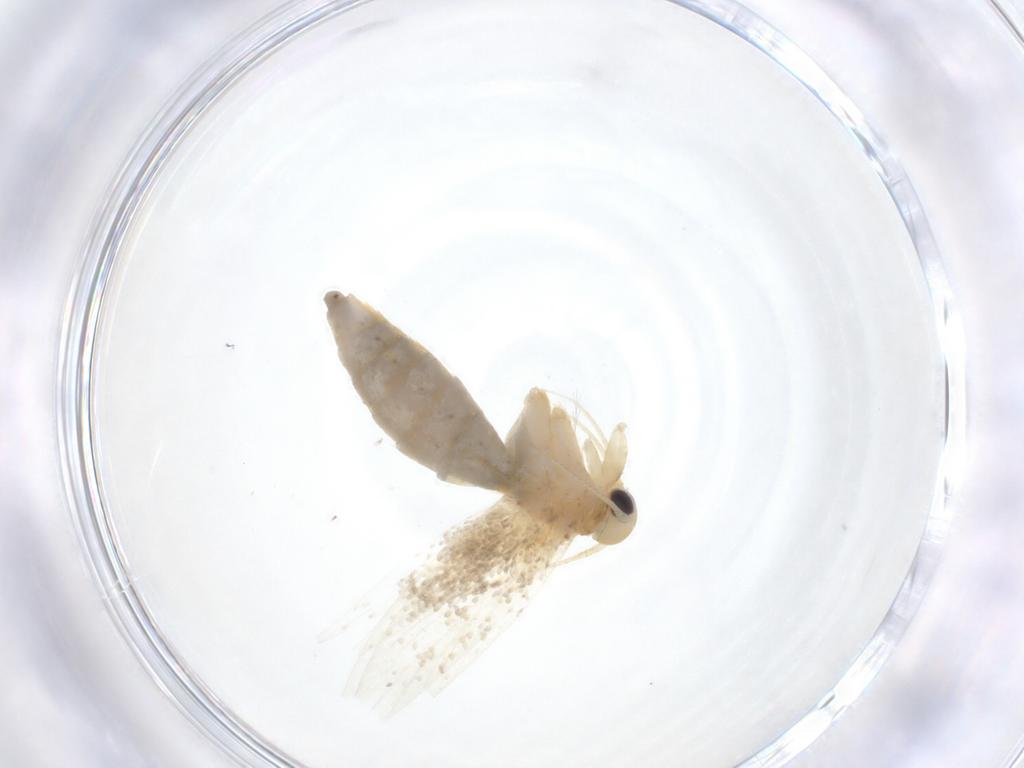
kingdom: Animalia
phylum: Arthropoda
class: Insecta
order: Lepidoptera
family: Erebidae
